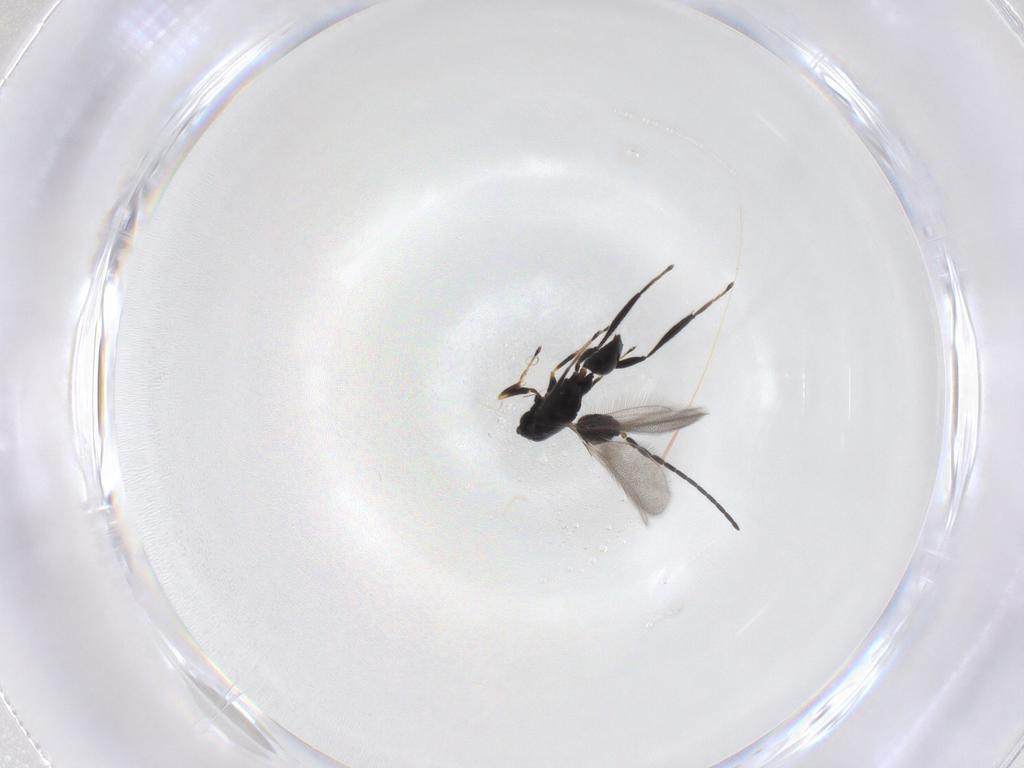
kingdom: Animalia
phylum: Arthropoda
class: Insecta
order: Hymenoptera
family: Mymaridae
